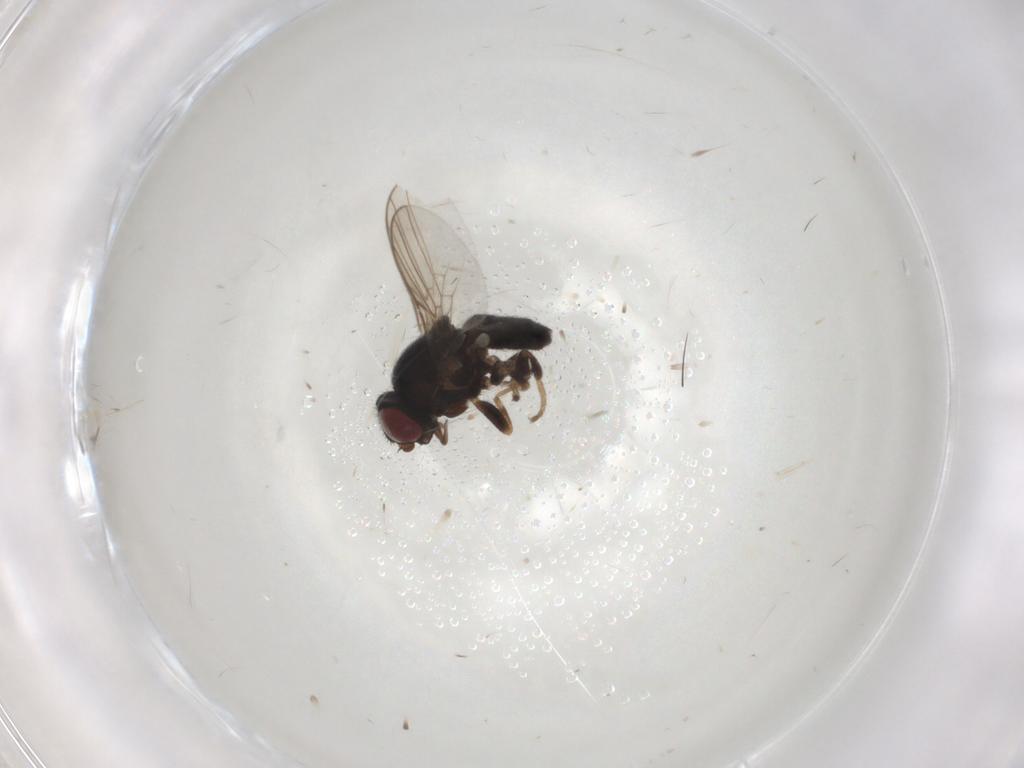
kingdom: Animalia
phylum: Arthropoda
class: Insecta
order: Diptera
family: Chloropidae
